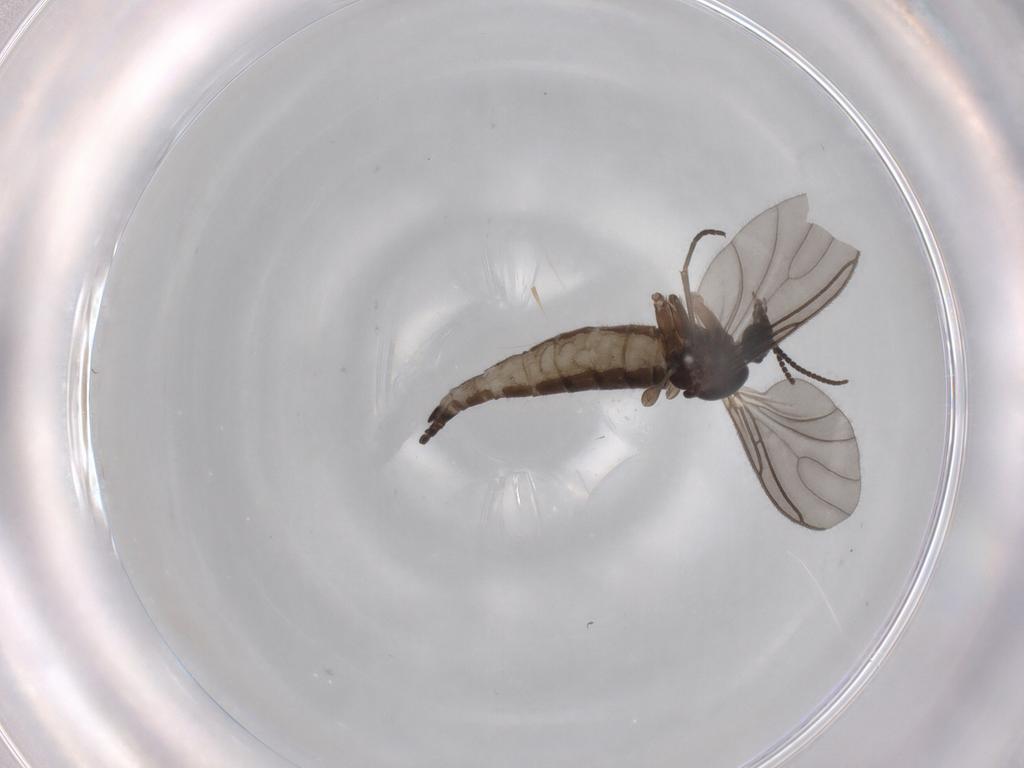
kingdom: Animalia
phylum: Arthropoda
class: Insecta
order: Diptera
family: Sciaridae
